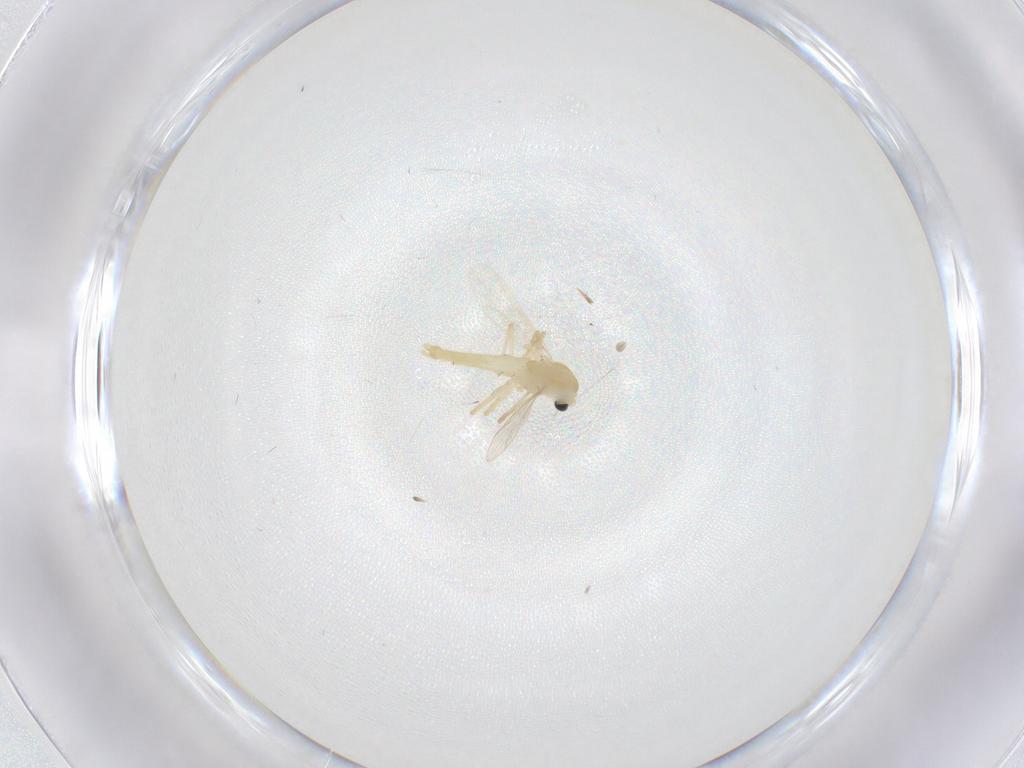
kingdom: Animalia
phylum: Arthropoda
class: Insecta
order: Diptera
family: Chironomidae
